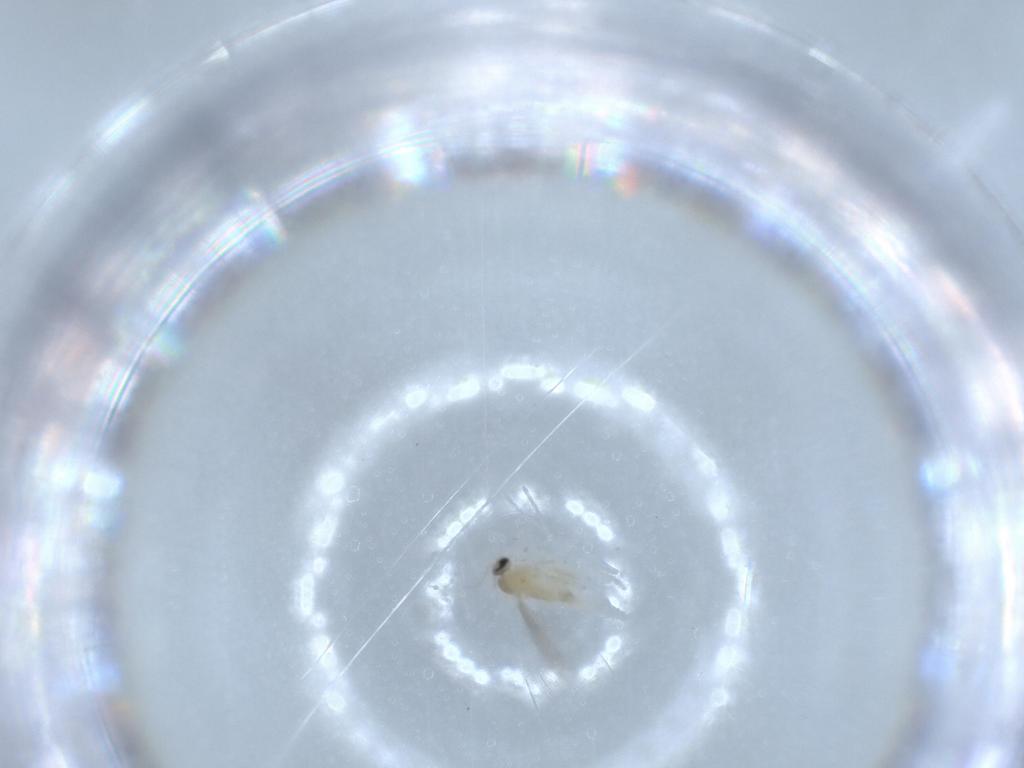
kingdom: Animalia
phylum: Arthropoda
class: Insecta
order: Diptera
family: Cecidomyiidae
